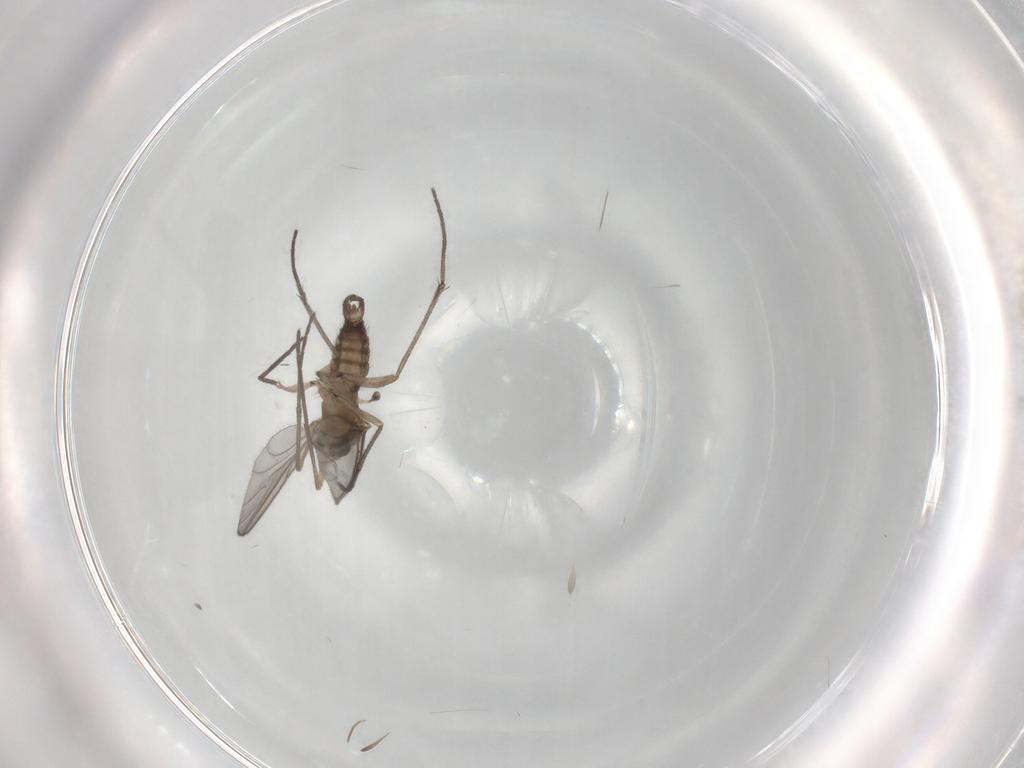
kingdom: Animalia
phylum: Arthropoda
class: Insecta
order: Diptera
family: Sciaridae
